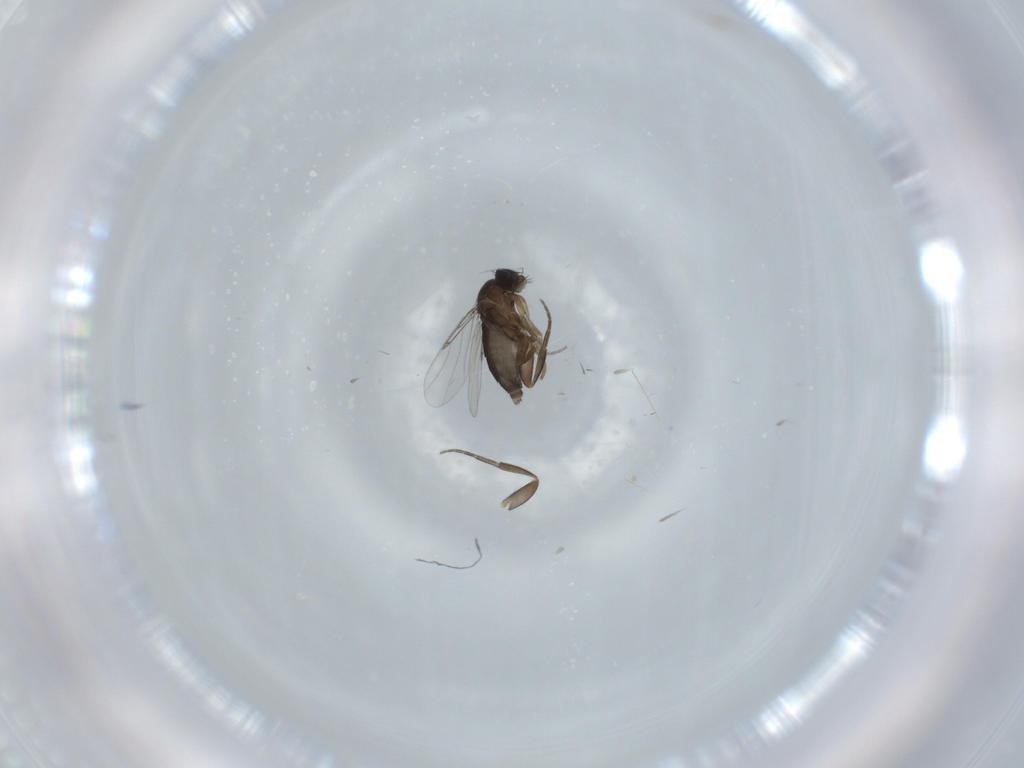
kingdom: Animalia
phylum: Arthropoda
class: Insecta
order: Diptera
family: Phoridae
